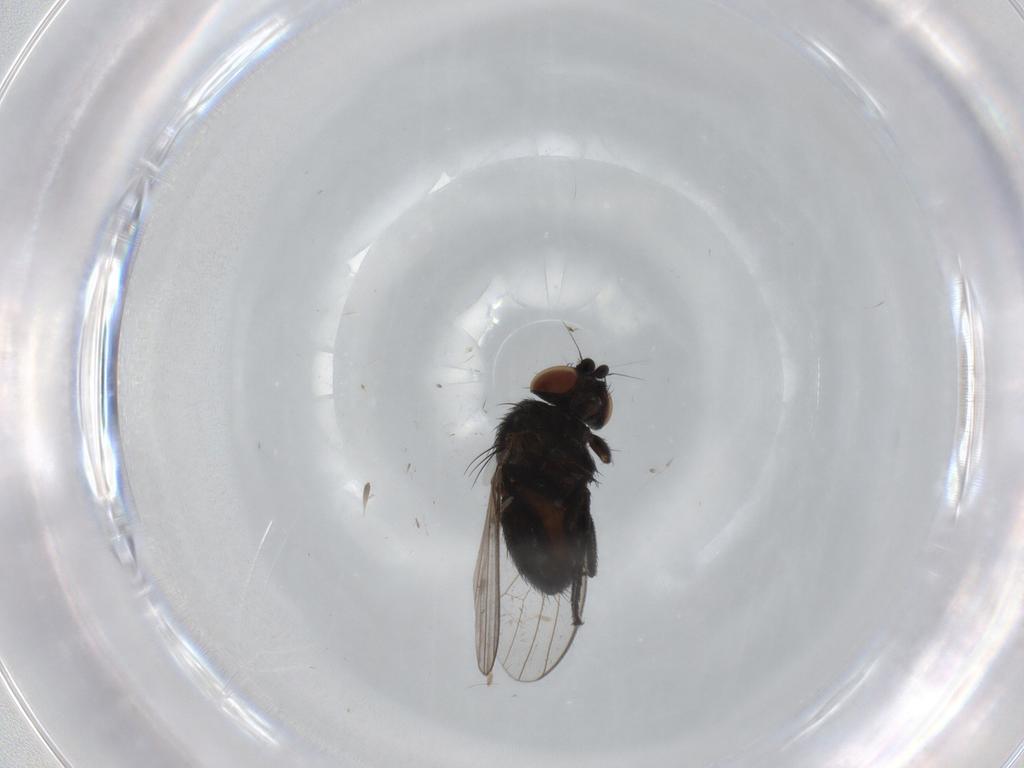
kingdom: Animalia
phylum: Arthropoda
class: Insecta
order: Diptera
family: Milichiidae
